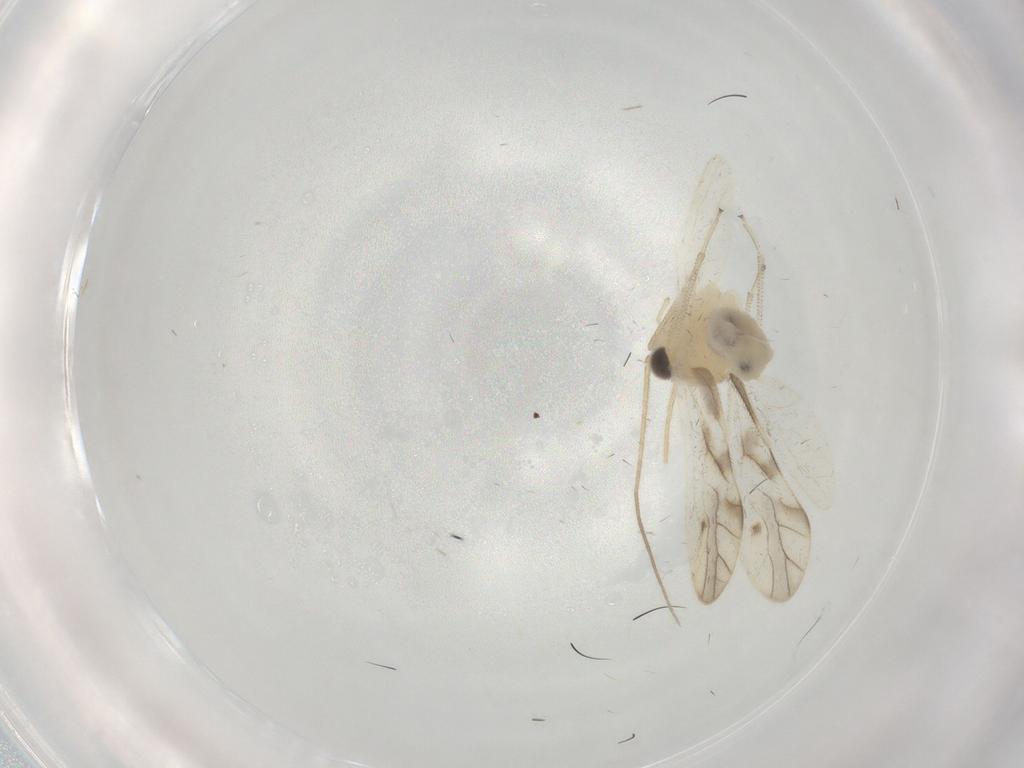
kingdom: Animalia
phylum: Arthropoda
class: Insecta
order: Psocodea
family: Caeciliusidae
